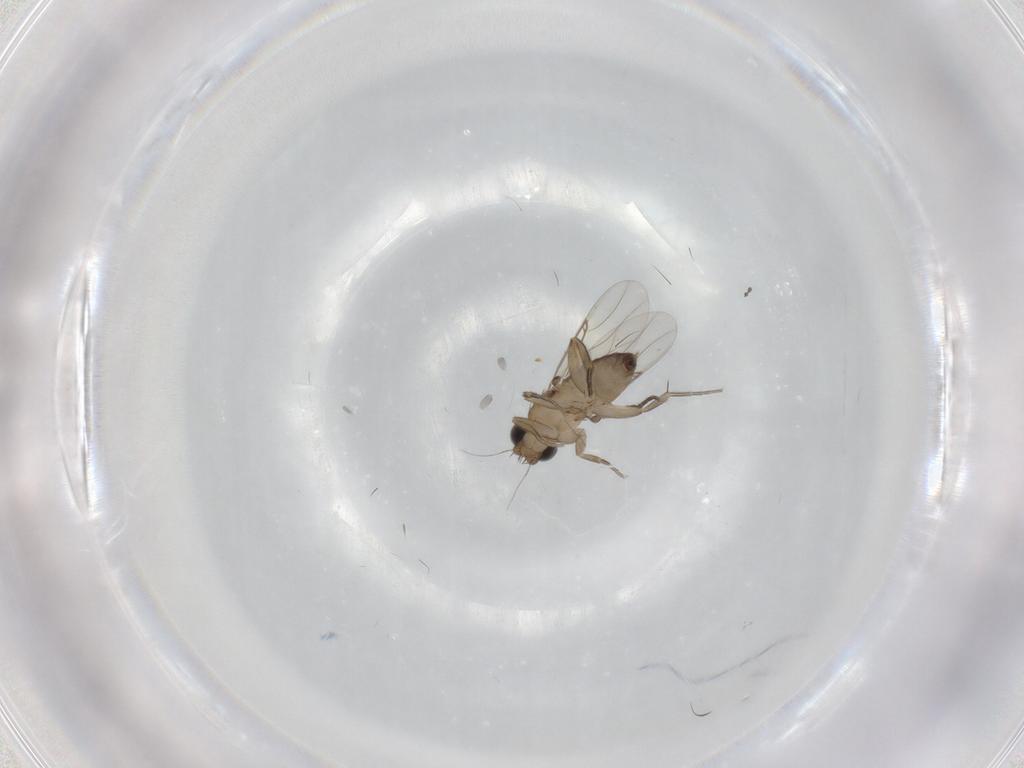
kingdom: Animalia
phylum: Arthropoda
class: Insecta
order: Diptera
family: Phoridae
